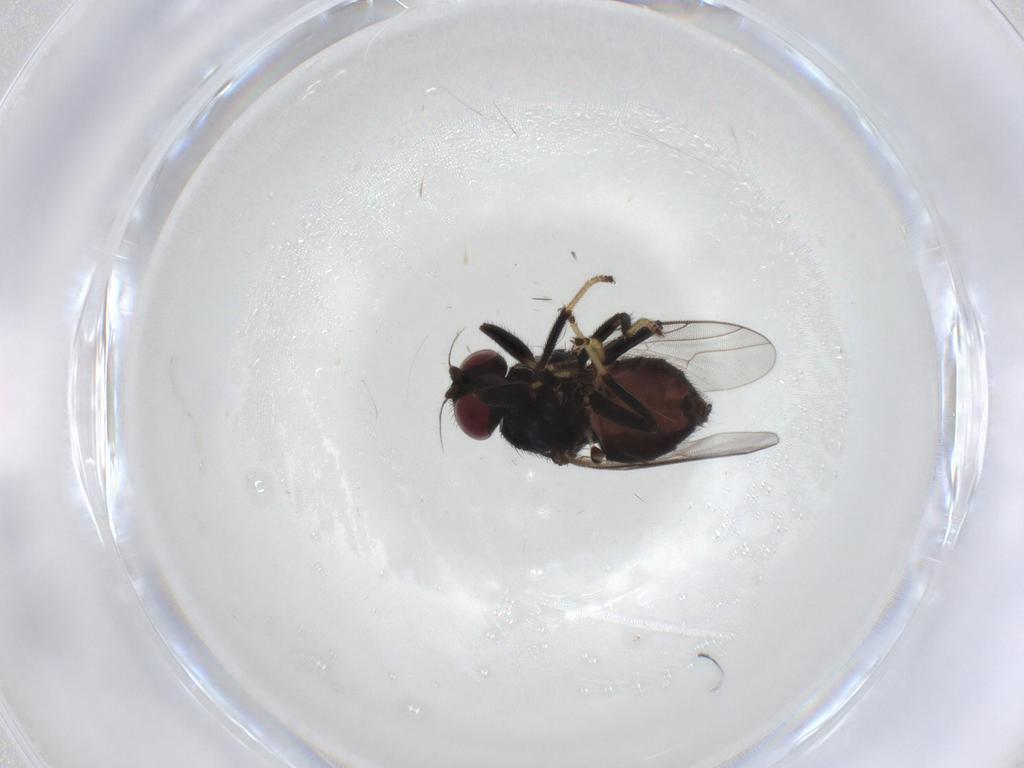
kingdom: Animalia
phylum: Arthropoda
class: Insecta
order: Diptera
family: Chloropidae
